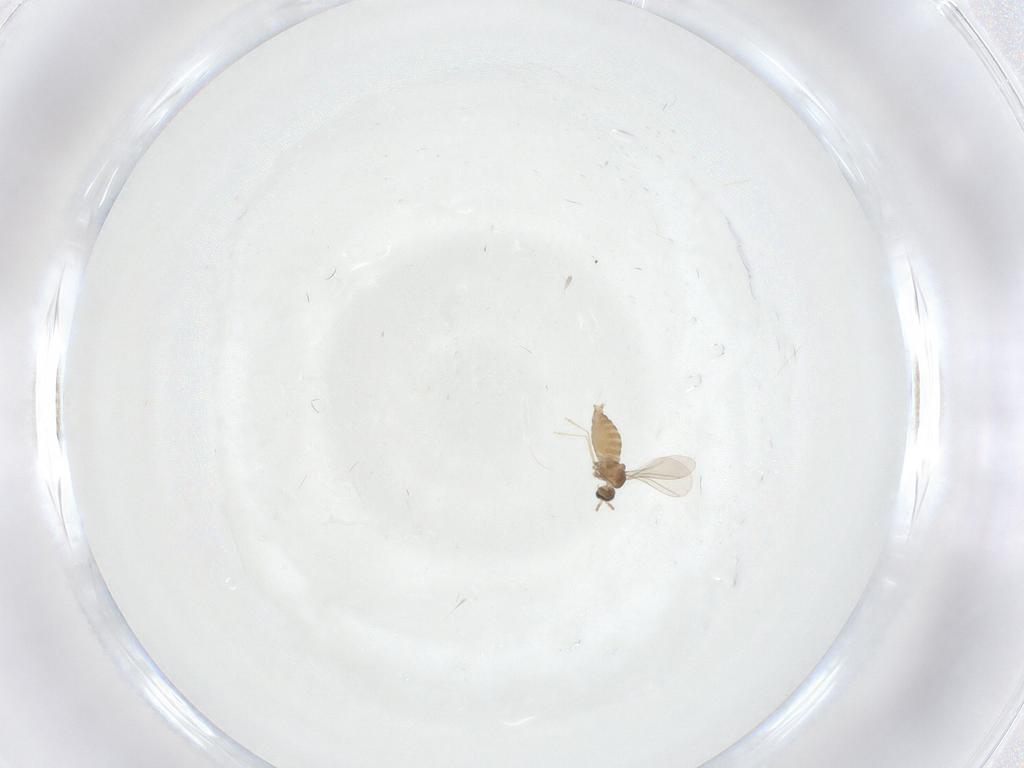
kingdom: Animalia
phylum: Arthropoda
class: Insecta
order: Diptera
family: Cecidomyiidae
